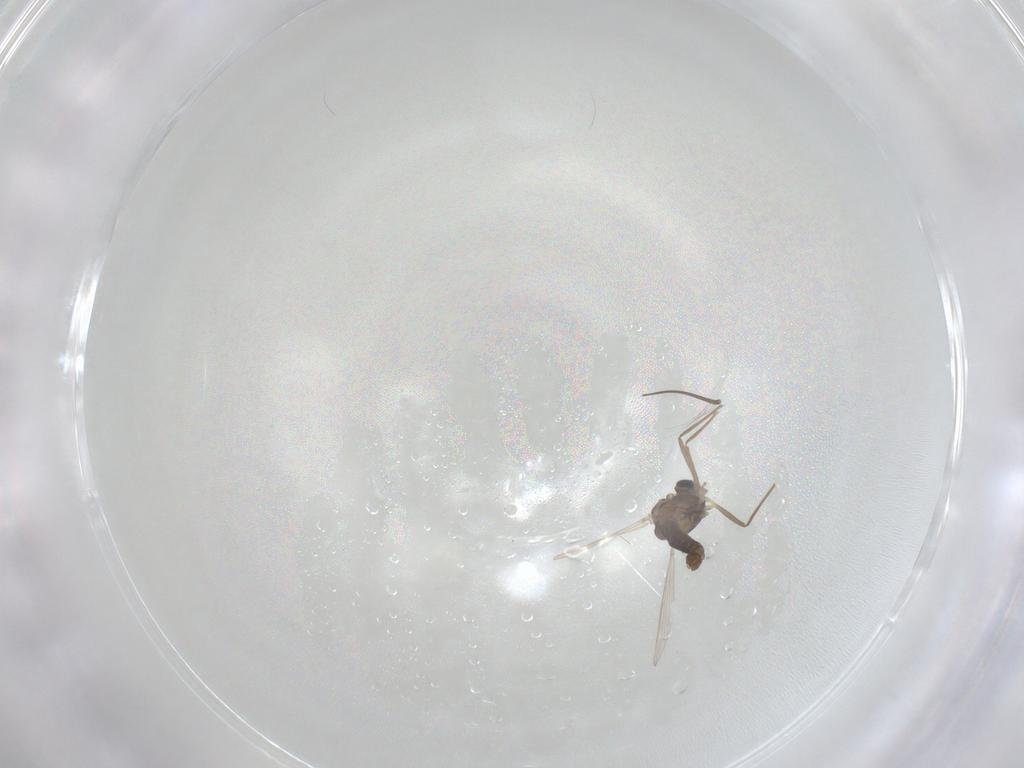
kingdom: Animalia
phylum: Arthropoda
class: Insecta
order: Diptera
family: Chironomidae
